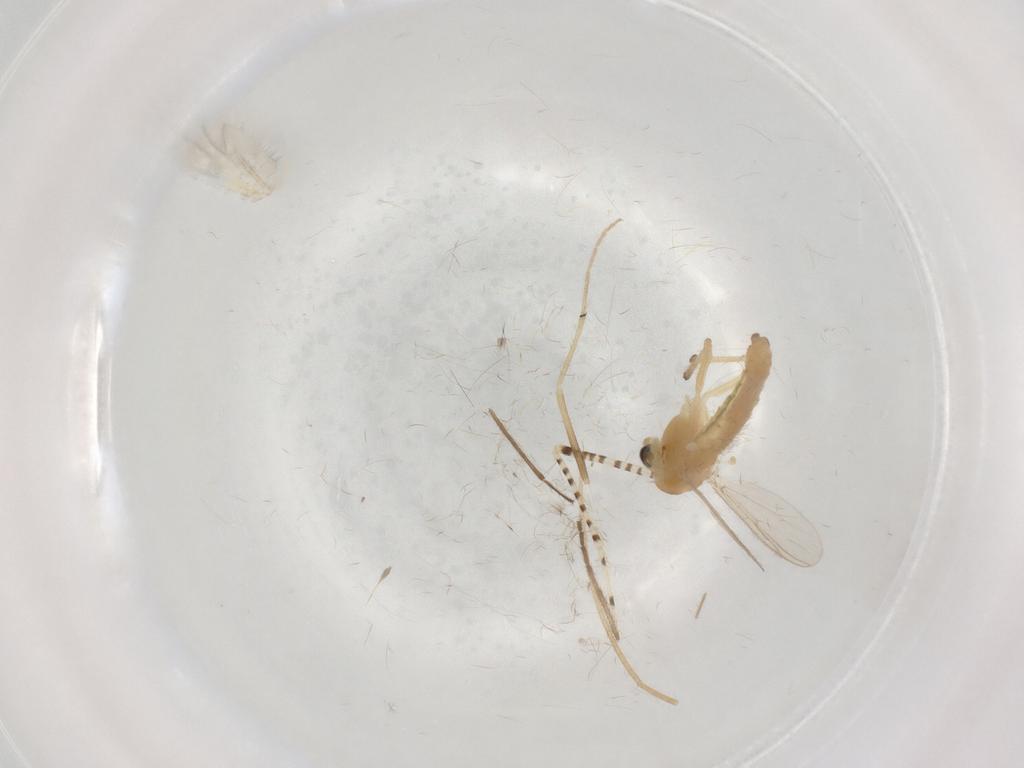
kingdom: Animalia
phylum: Arthropoda
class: Insecta
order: Diptera
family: Chironomidae
